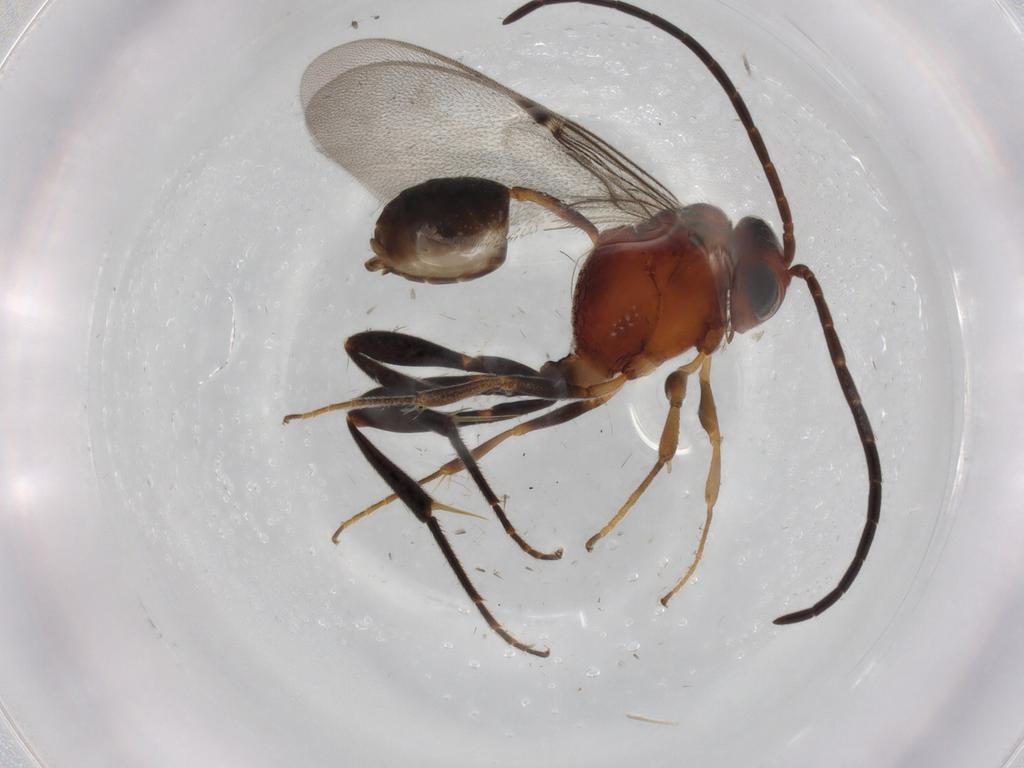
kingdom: Animalia
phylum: Arthropoda
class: Insecta
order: Hymenoptera
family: Evaniidae
